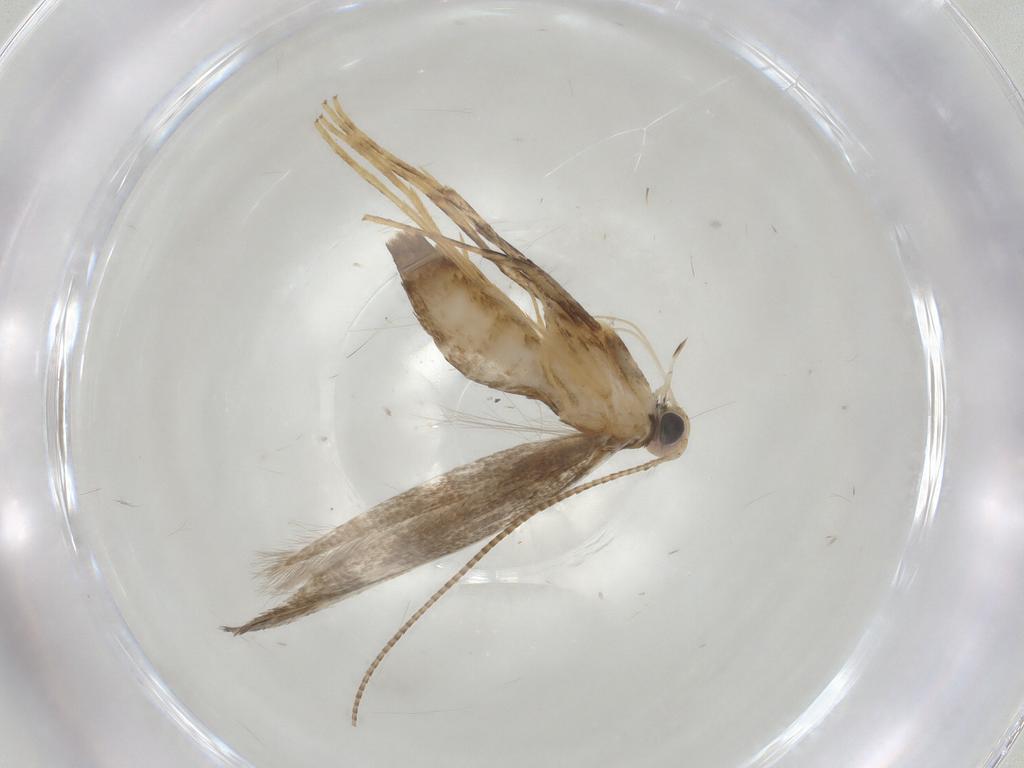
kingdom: Animalia
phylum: Arthropoda
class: Insecta
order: Lepidoptera
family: Gracillariidae
